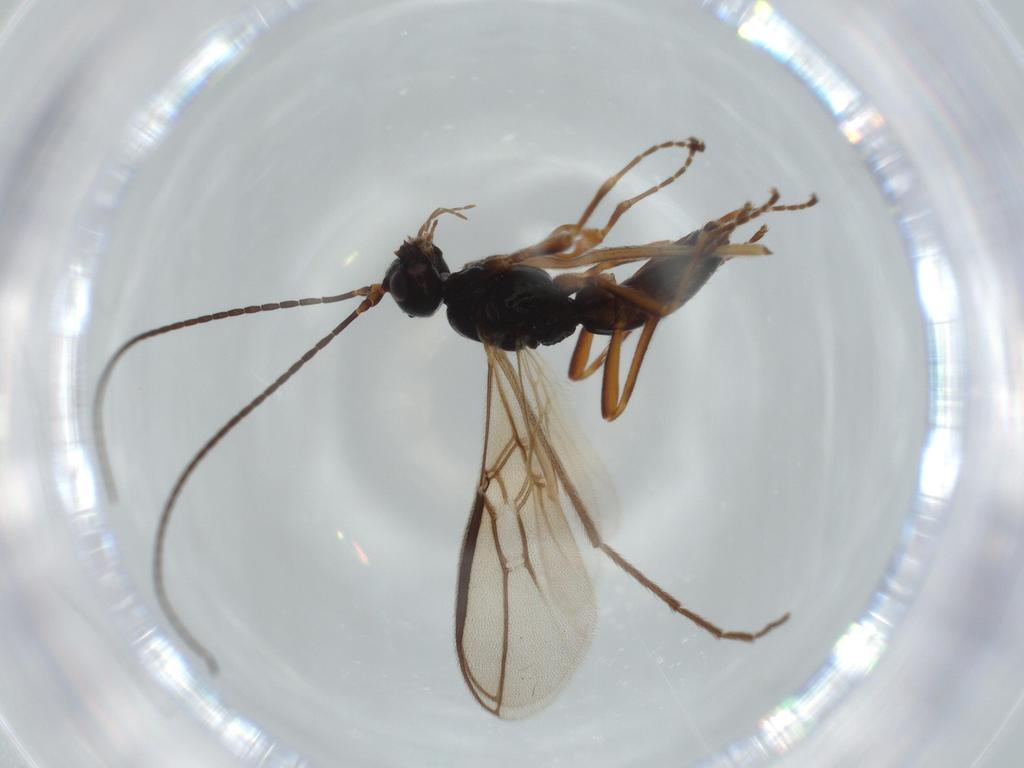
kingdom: Animalia
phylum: Arthropoda
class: Insecta
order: Hymenoptera
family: Braconidae
